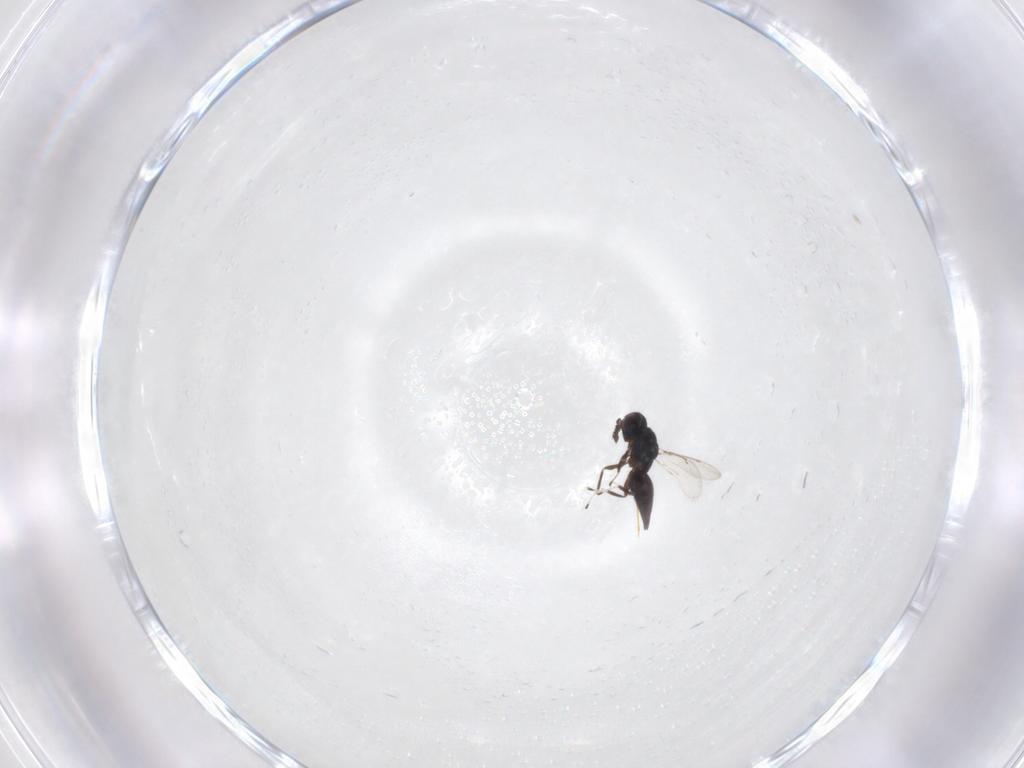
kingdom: Animalia
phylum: Arthropoda
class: Insecta
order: Hymenoptera
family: Eulophidae
